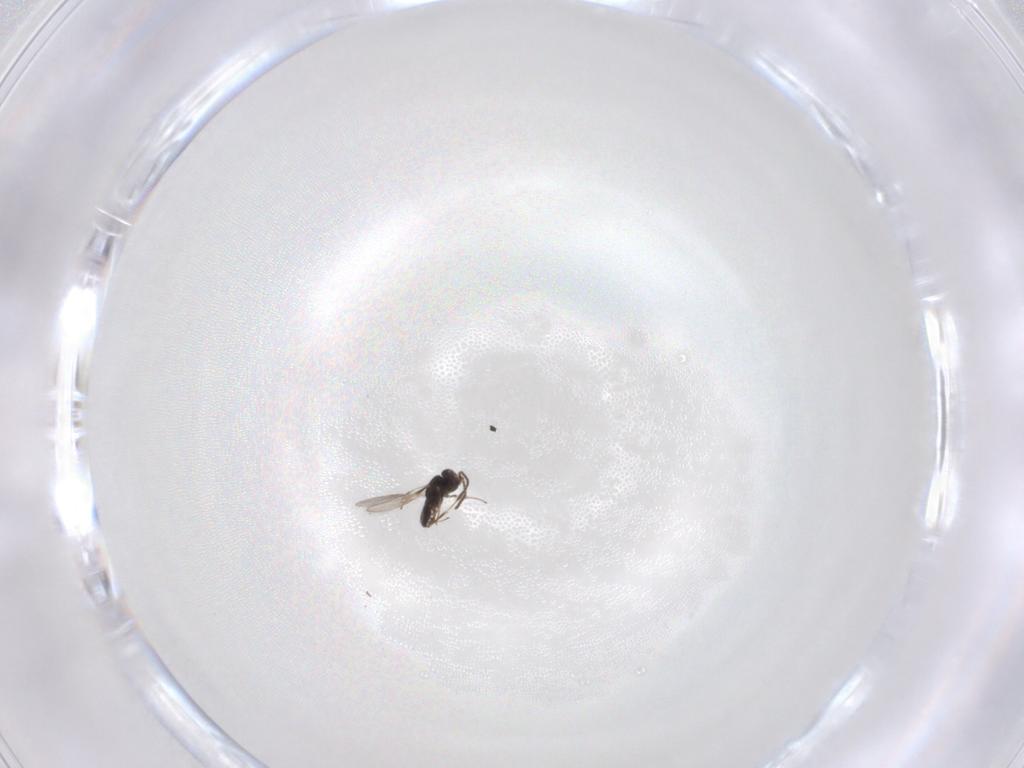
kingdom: Animalia
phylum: Arthropoda
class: Insecta
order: Hymenoptera
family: Scelionidae
